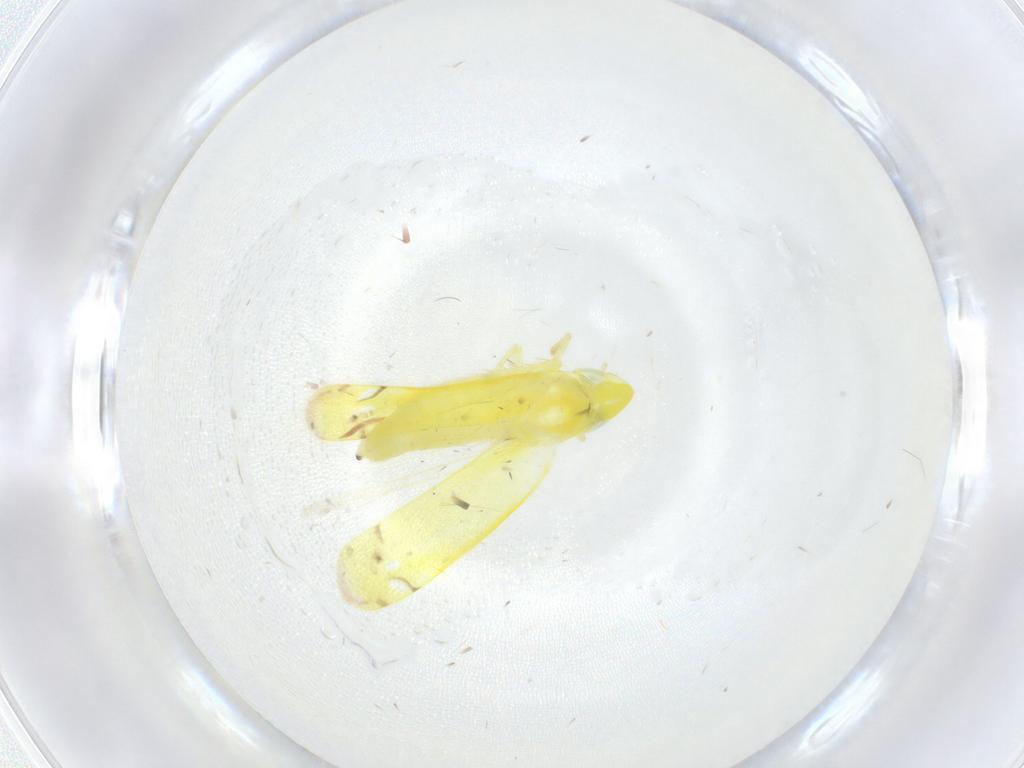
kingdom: Animalia
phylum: Arthropoda
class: Insecta
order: Hemiptera
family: Cicadellidae
